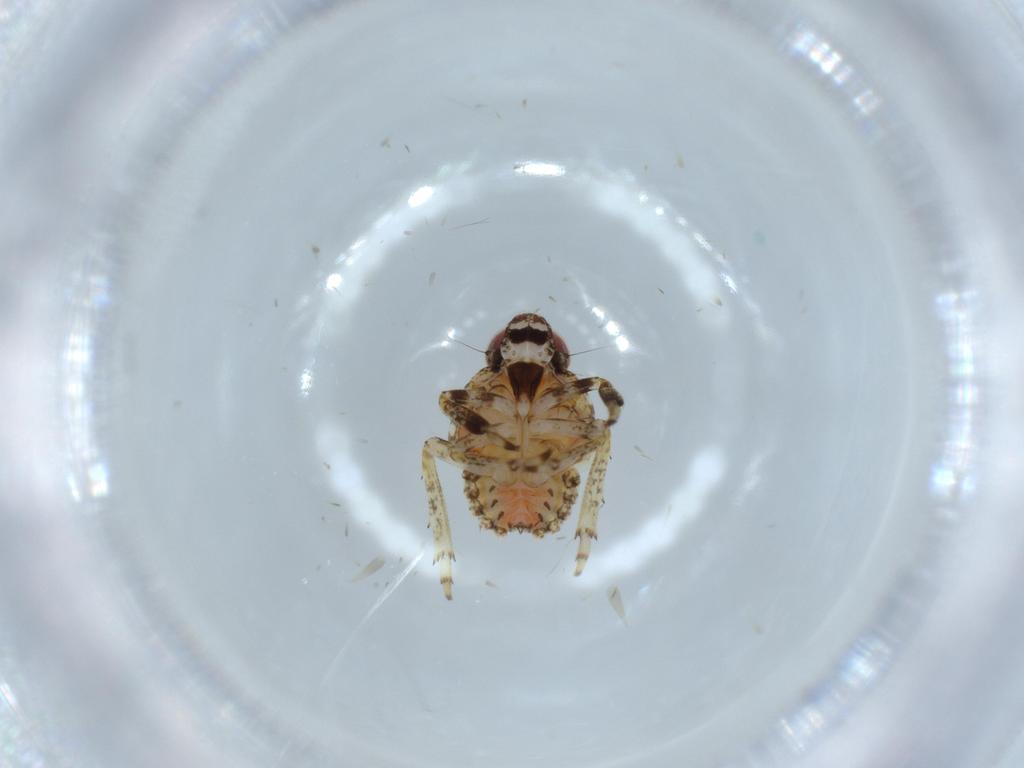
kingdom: Animalia
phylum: Arthropoda
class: Insecta
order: Hemiptera
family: Issidae
